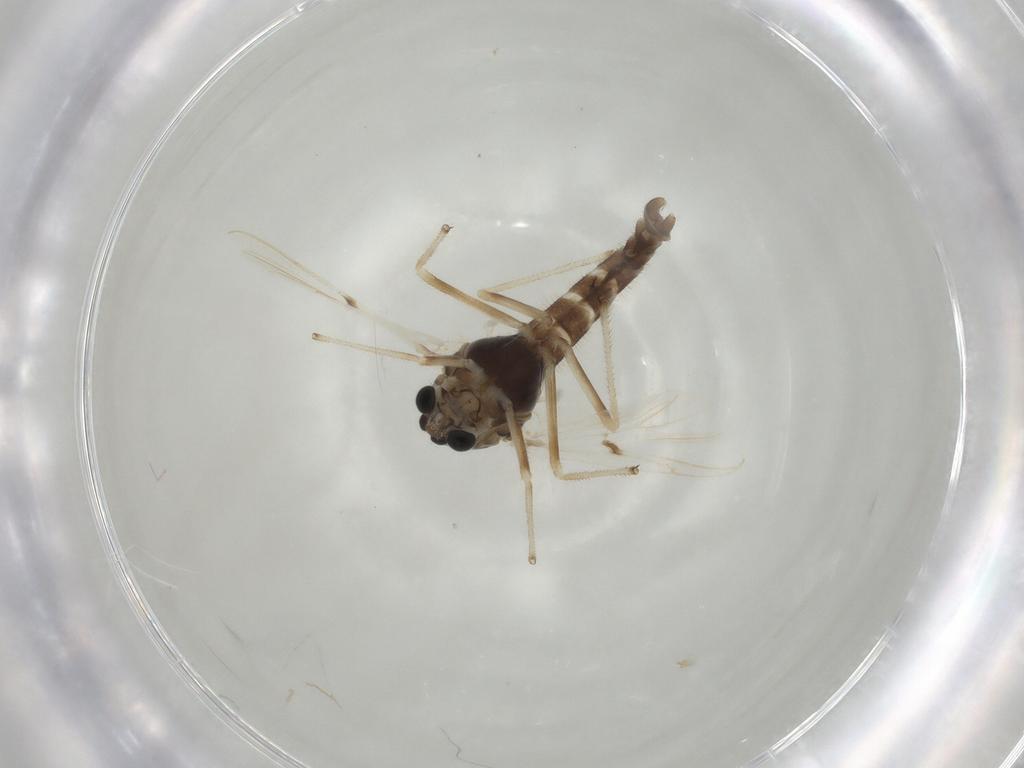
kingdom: Animalia
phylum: Arthropoda
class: Insecta
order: Diptera
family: Chironomidae
